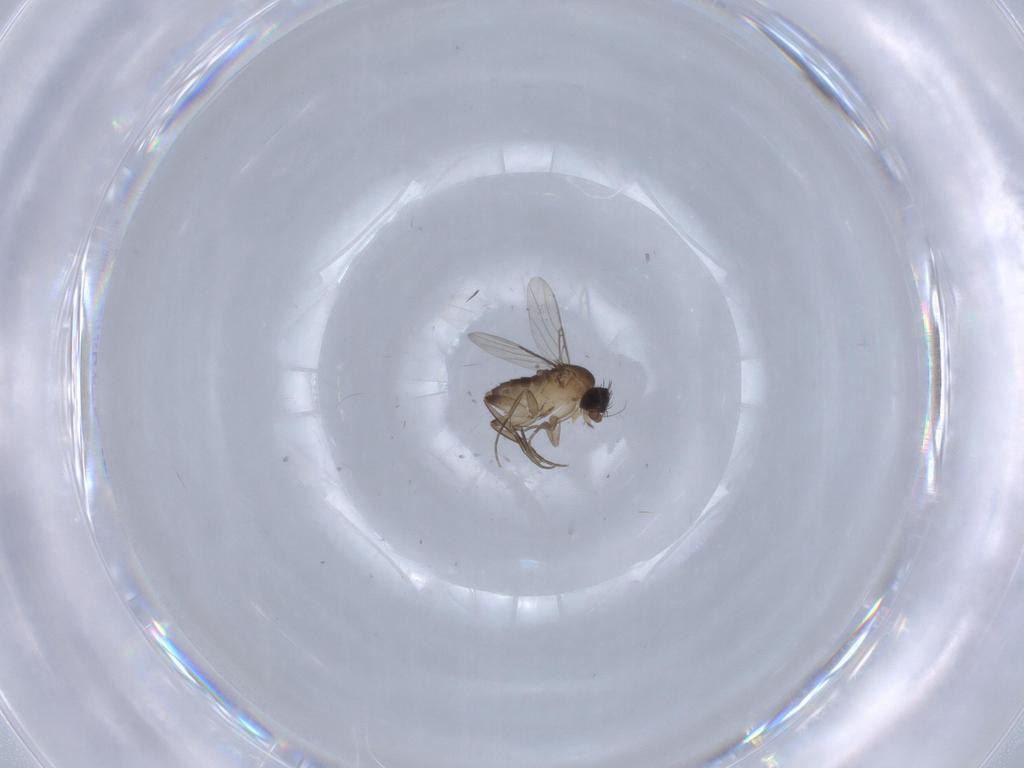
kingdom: Animalia
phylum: Arthropoda
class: Insecta
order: Diptera
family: Phoridae
